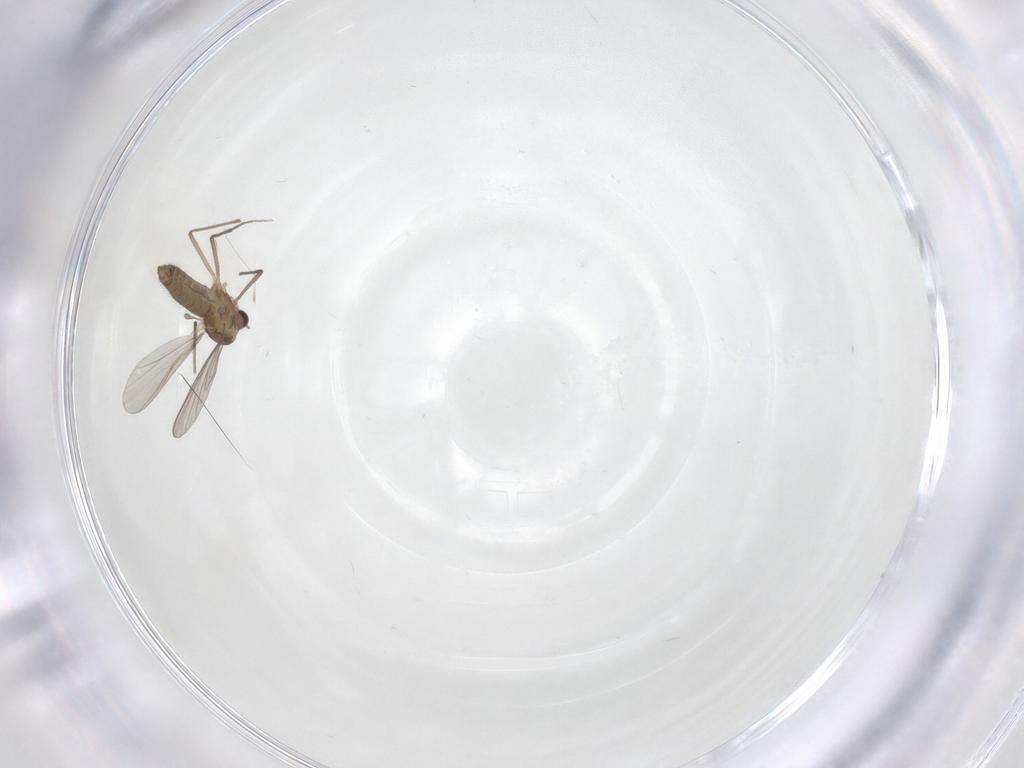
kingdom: Animalia
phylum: Arthropoda
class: Insecta
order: Diptera
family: Chironomidae
